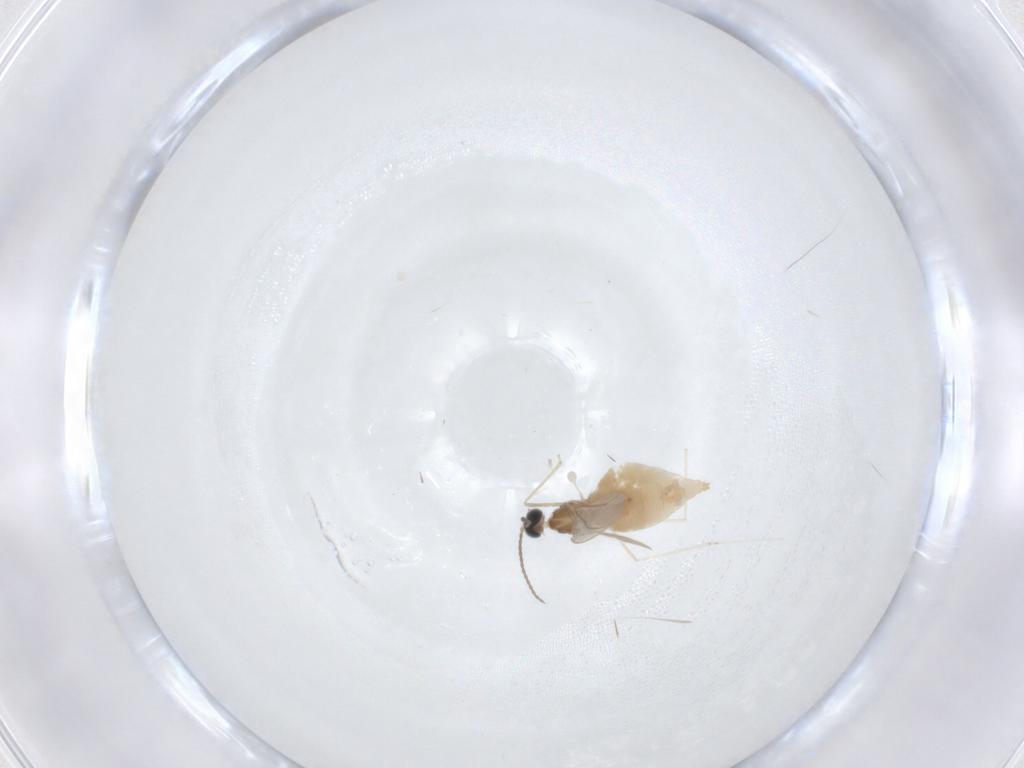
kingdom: Animalia
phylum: Arthropoda
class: Insecta
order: Diptera
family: Cecidomyiidae
